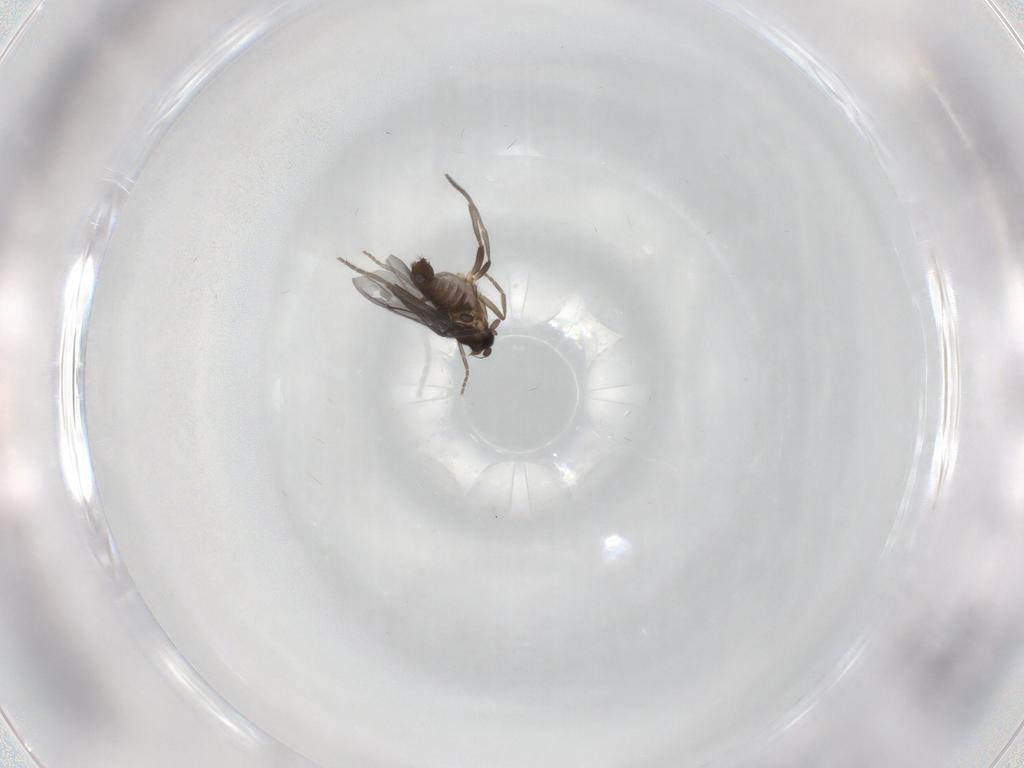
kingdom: Animalia
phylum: Arthropoda
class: Insecta
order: Diptera
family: Phoridae
